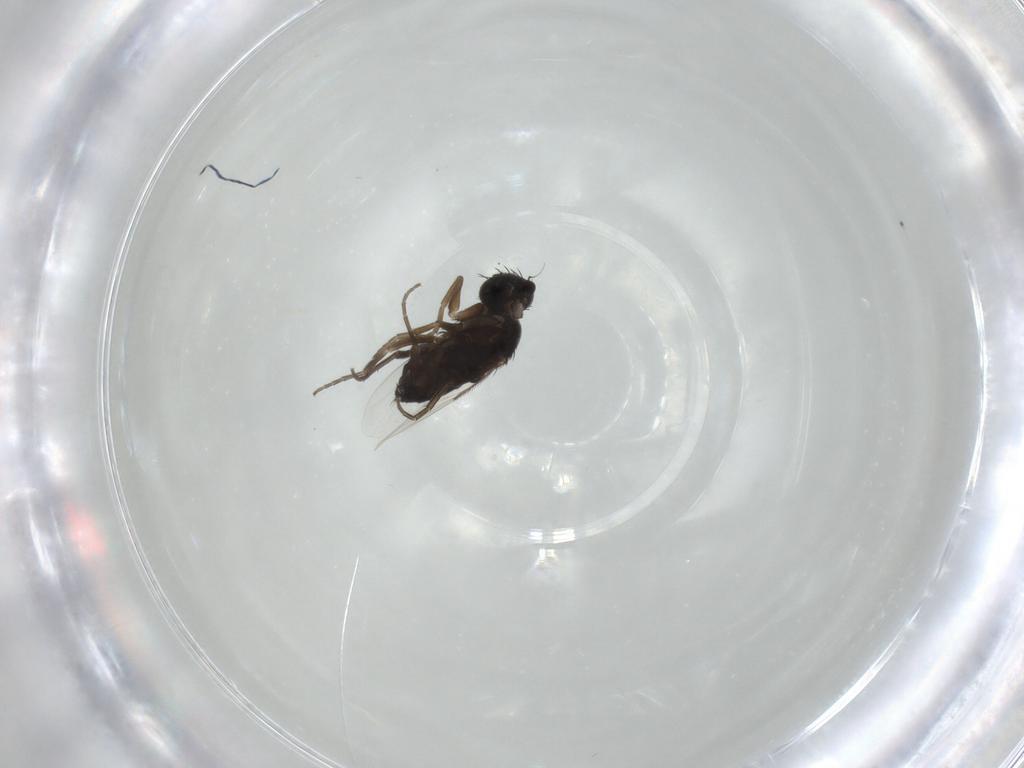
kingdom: Animalia
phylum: Arthropoda
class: Insecta
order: Diptera
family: Phoridae
